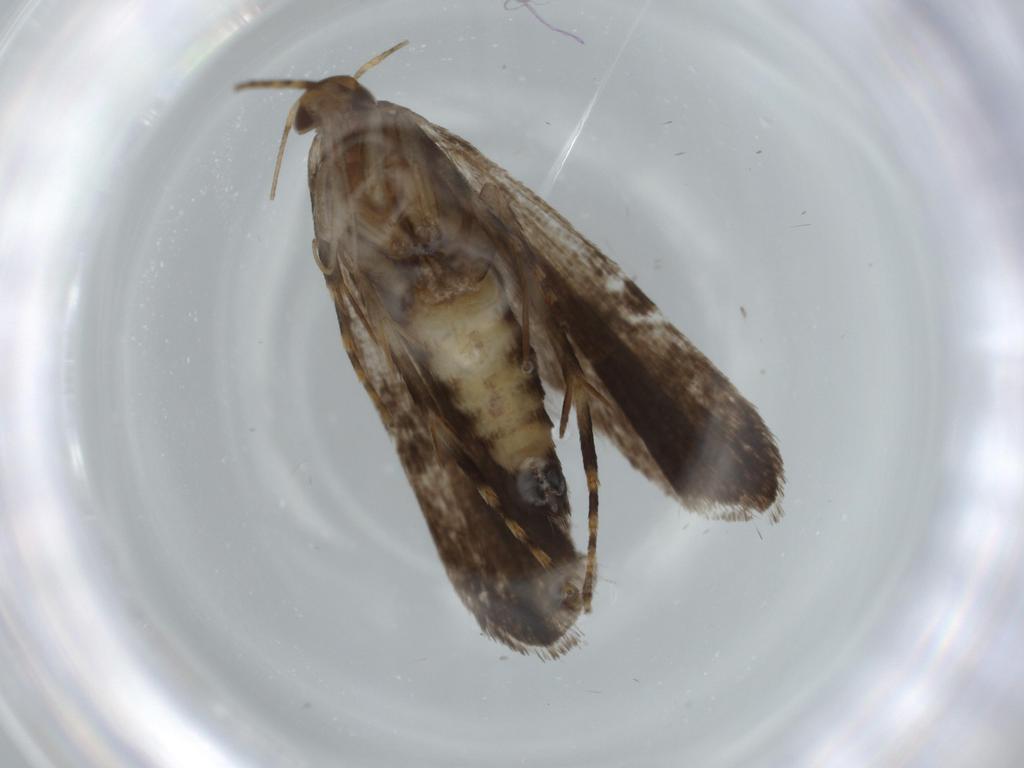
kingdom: Animalia
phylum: Arthropoda
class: Insecta
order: Lepidoptera
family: Gelechiidae
